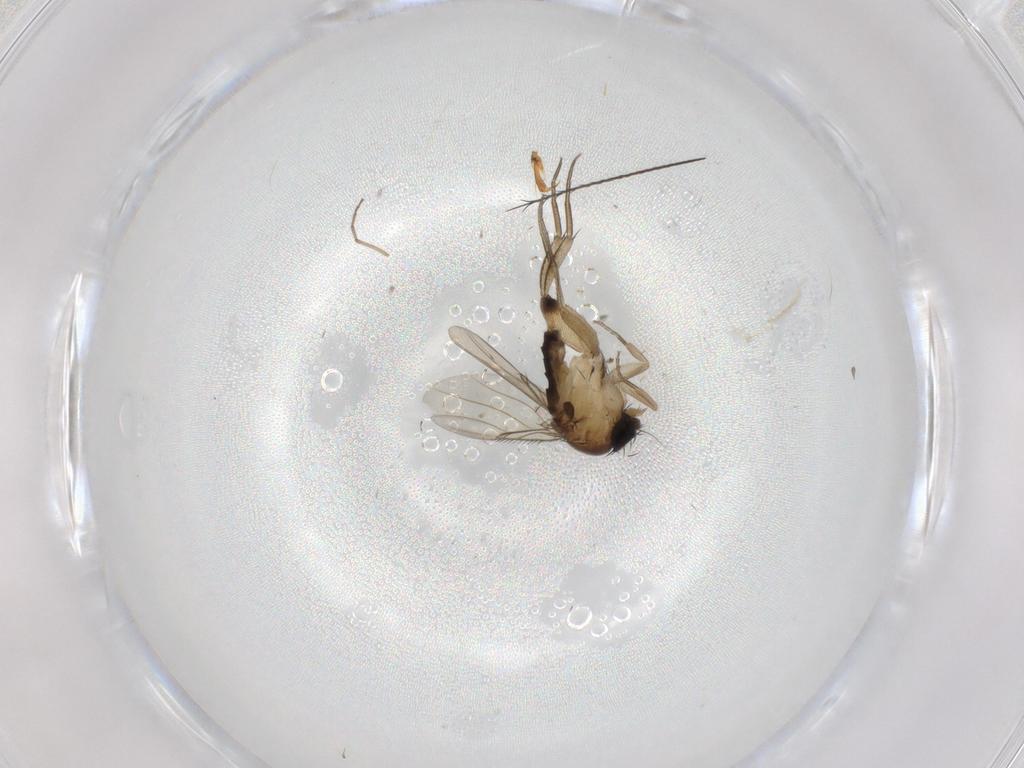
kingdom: Animalia
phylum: Arthropoda
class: Insecta
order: Diptera
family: Phoridae
